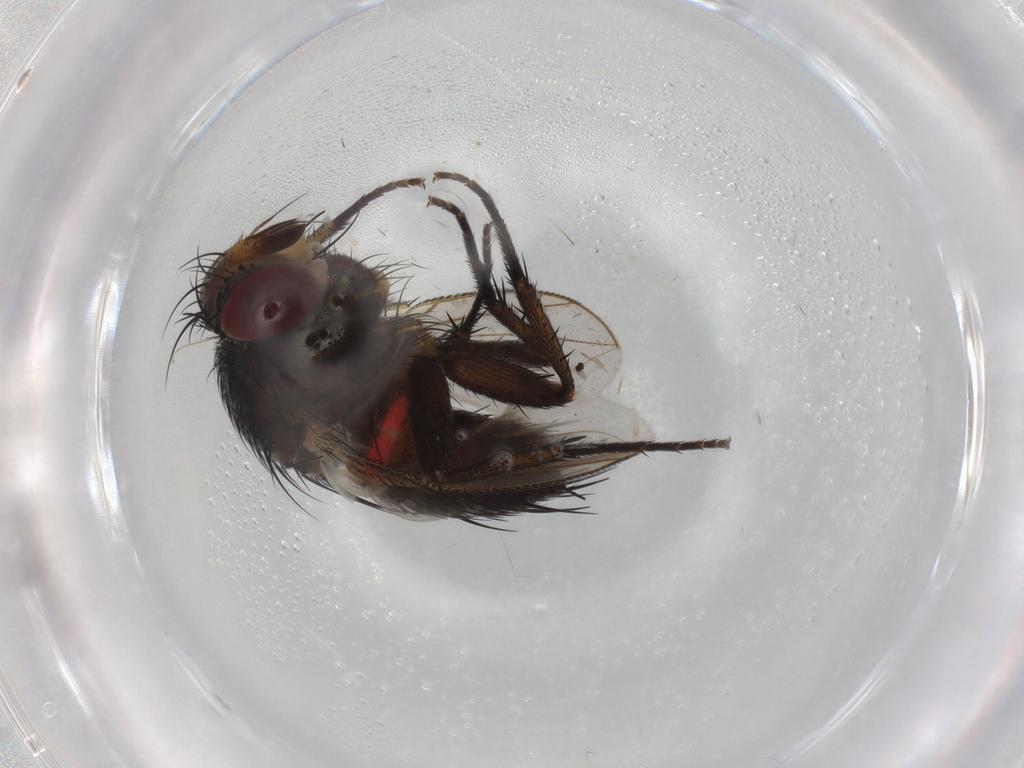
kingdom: Animalia
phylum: Arthropoda
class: Insecta
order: Diptera
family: Tachinidae
